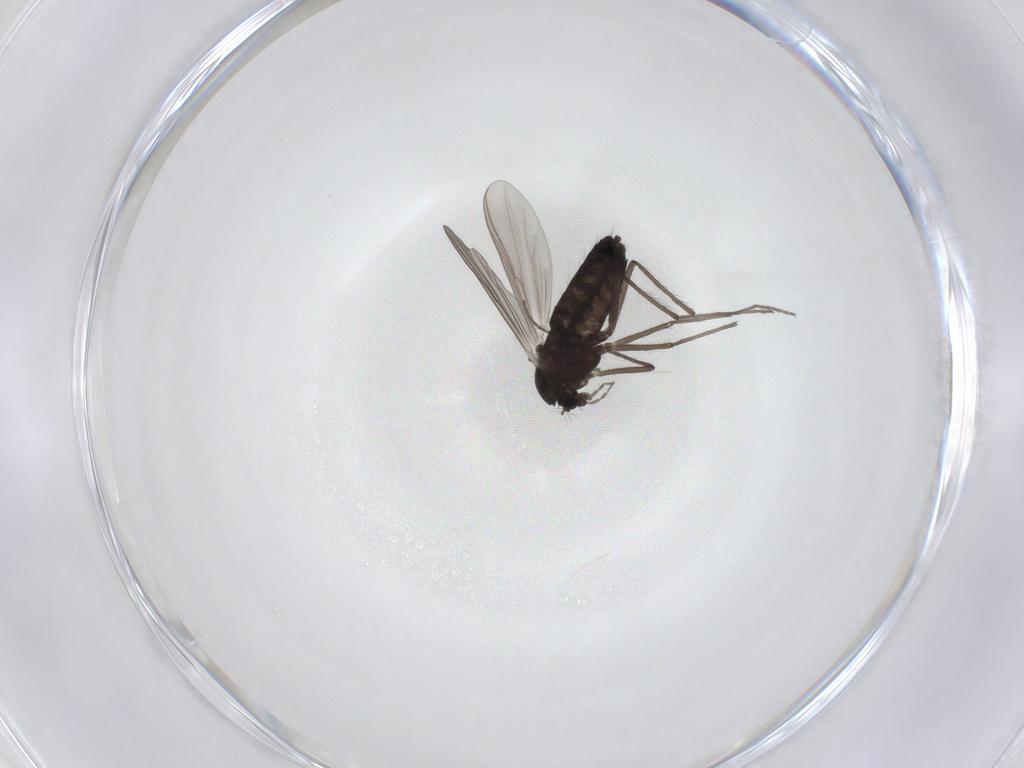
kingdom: Animalia
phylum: Arthropoda
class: Insecta
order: Diptera
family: Chironomidae
